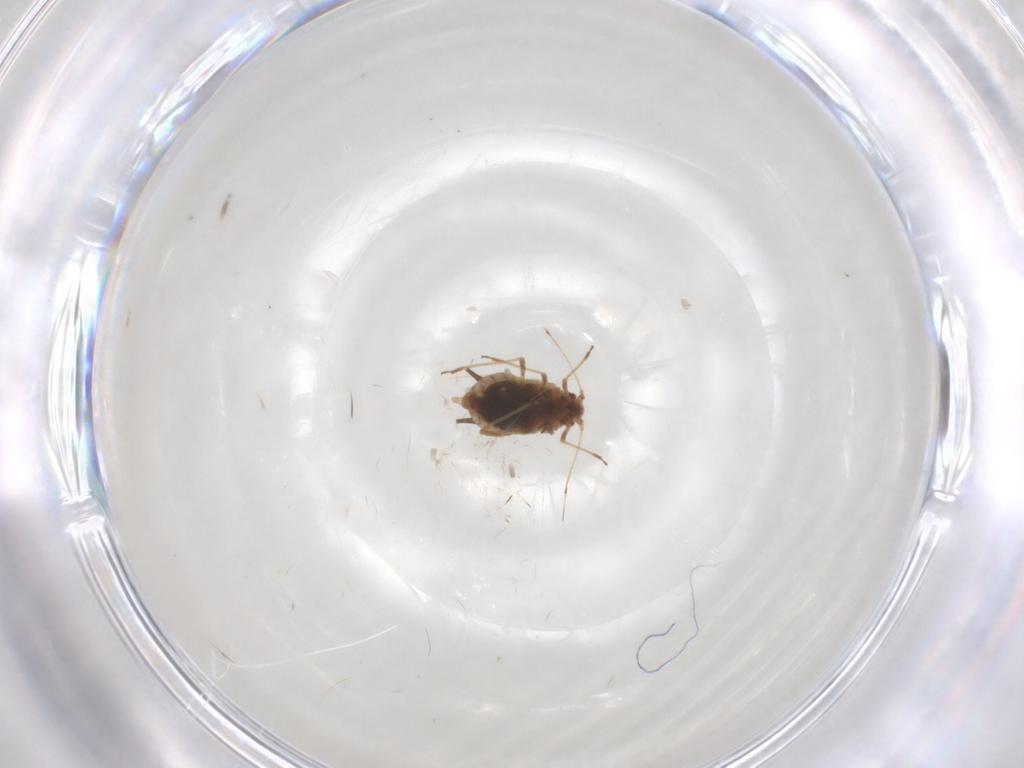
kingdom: Animalia
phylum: Arthropoda
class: Insecta
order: Hemiptera
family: Aphididae
